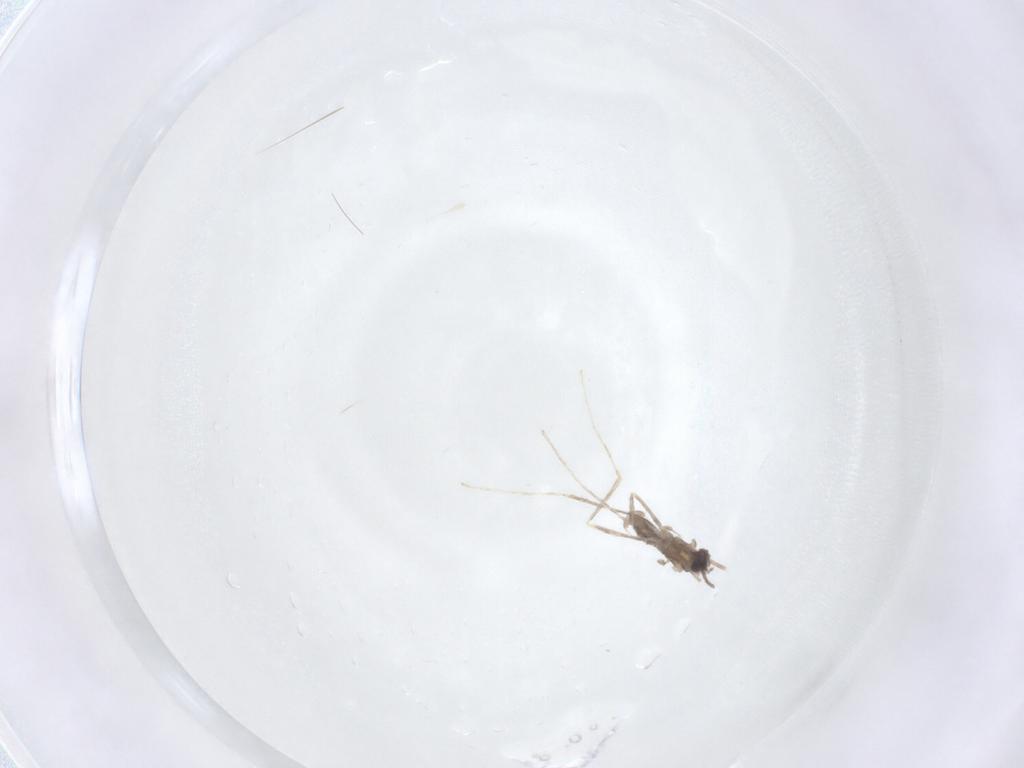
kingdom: Animalia
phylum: Arthropoda
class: Insecta
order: Diptera
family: Cecidomyiidae
